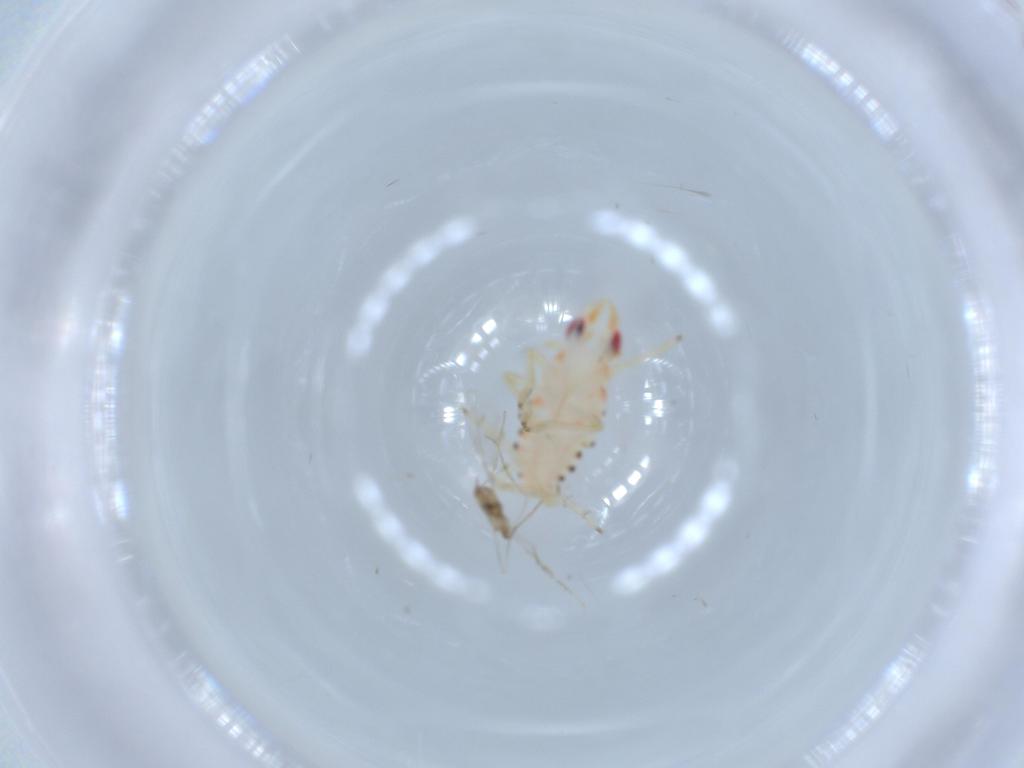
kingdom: Animalia
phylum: Arthropoda
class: Insecta
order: Hemiptera
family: Tropiduchidae
